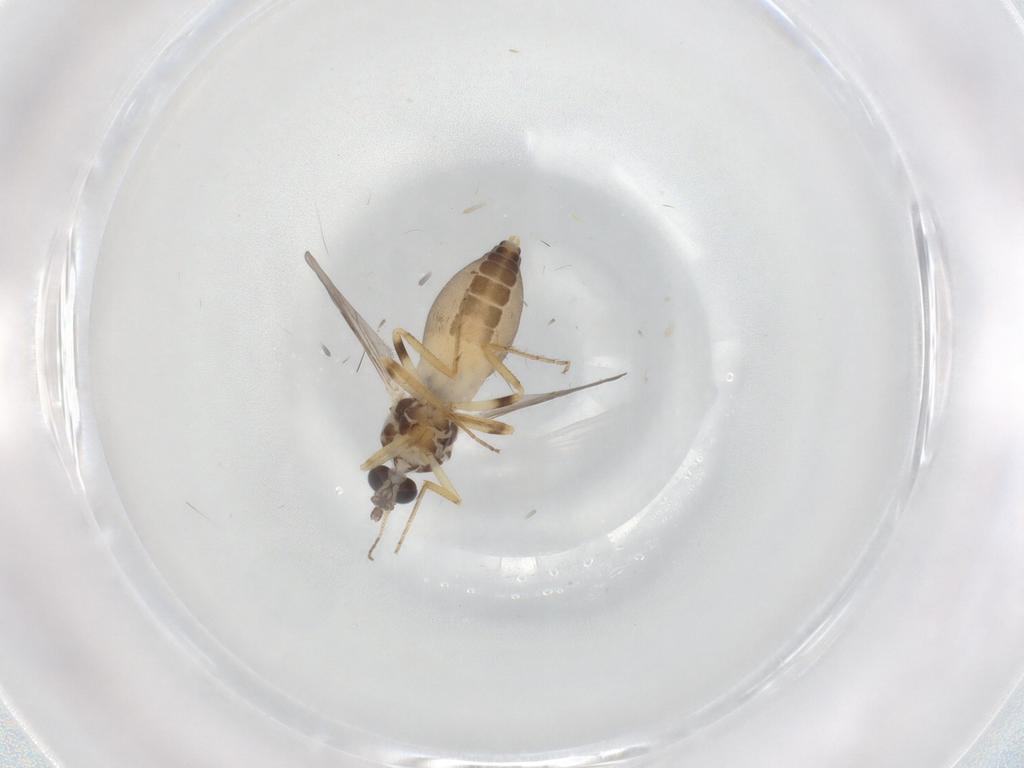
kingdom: Animalia
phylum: Arthropoda
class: Insecta
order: Diptera
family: Ceratopogonidae
